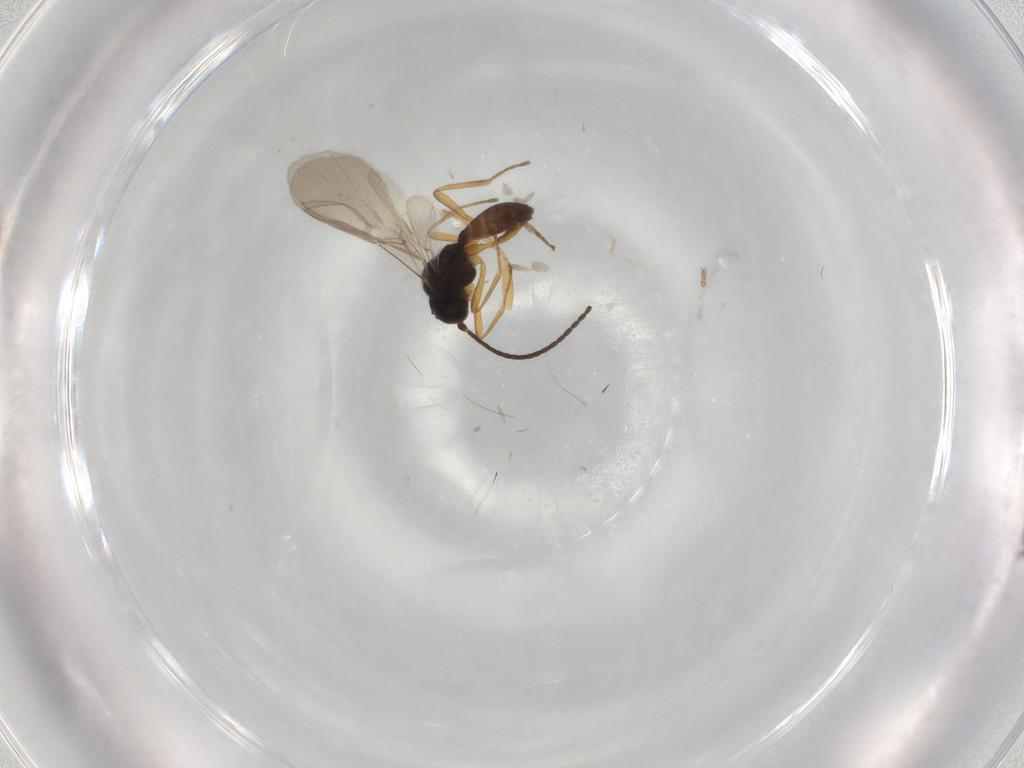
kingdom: Animalia
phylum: Arthropoda
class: Insecta
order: Hymenoptera
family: Braconidae
